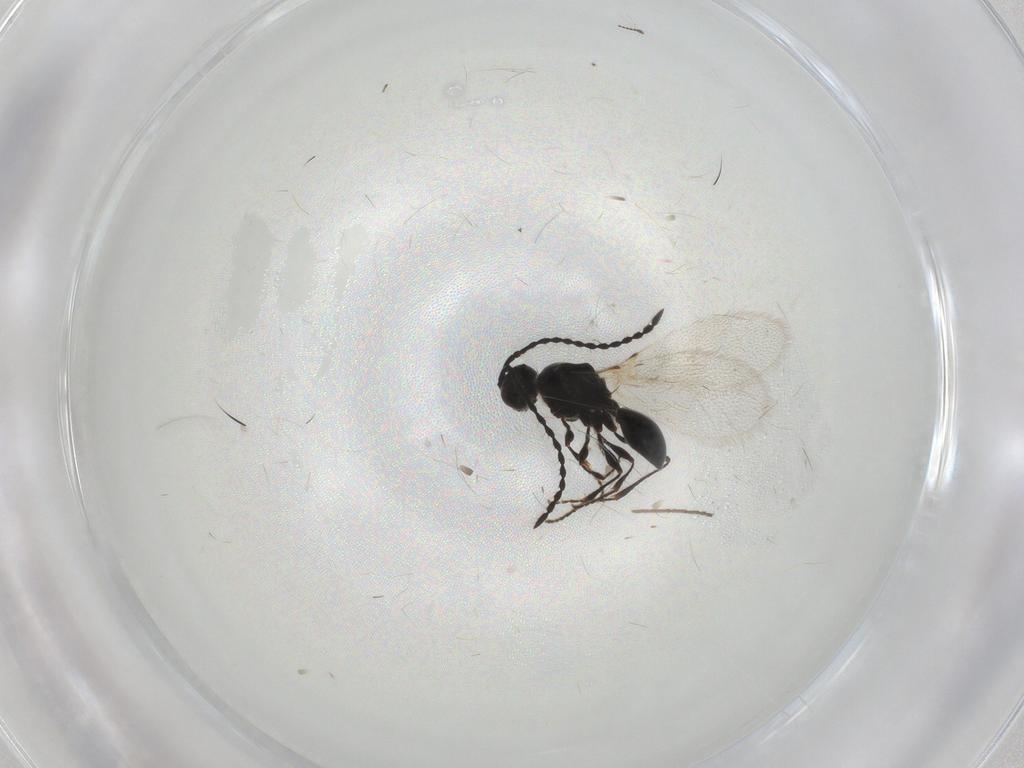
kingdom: Animalia
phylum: Arthropoda
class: Insecta
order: Hymenoptera
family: Diapriidae
